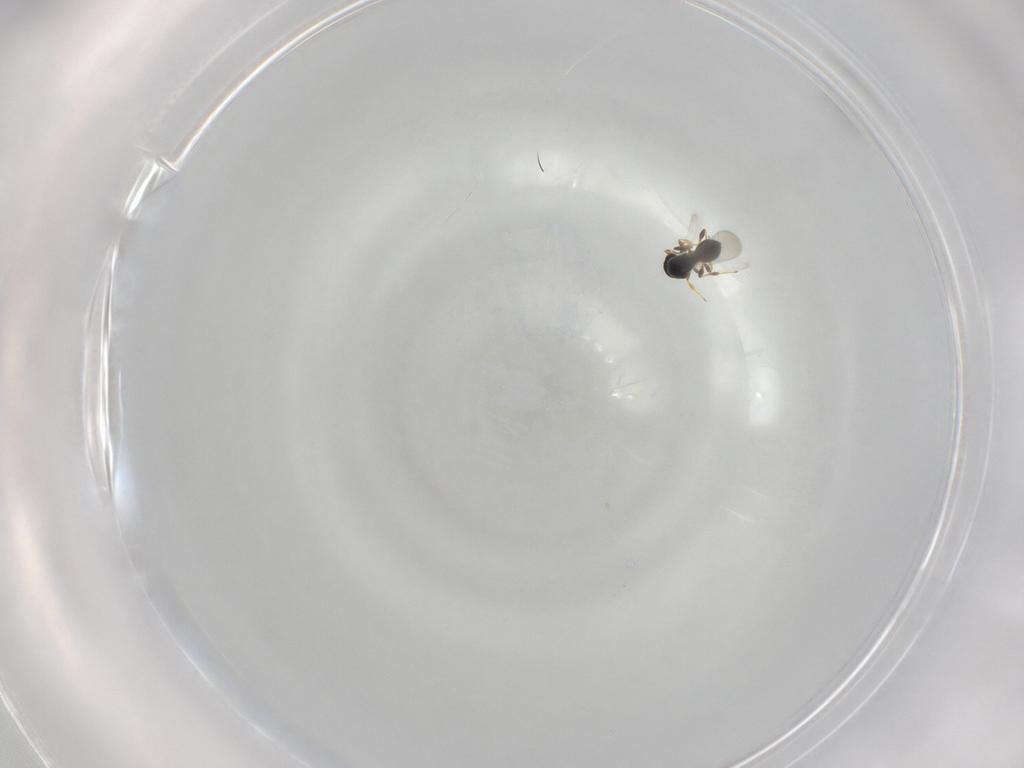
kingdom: Animalia
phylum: Arthropoda
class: Insecta
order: Hymenoptera
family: Platygastridae
